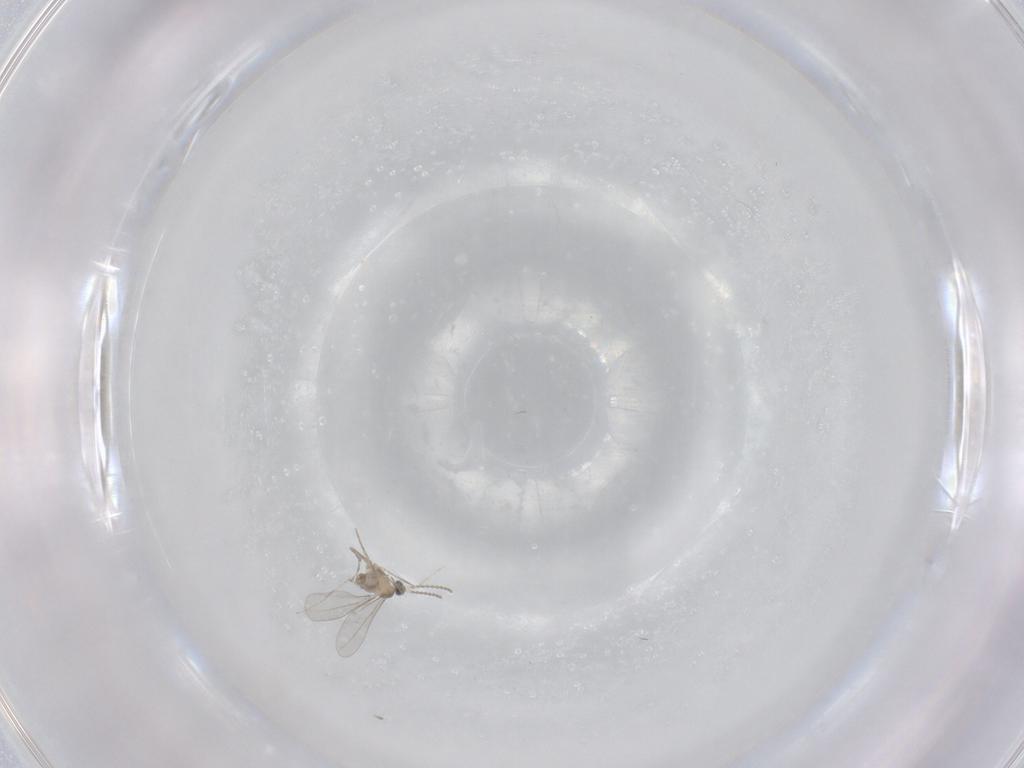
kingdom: Animalia
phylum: Arthropoda
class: Insecta
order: Diptera
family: Cecidomyiidae
